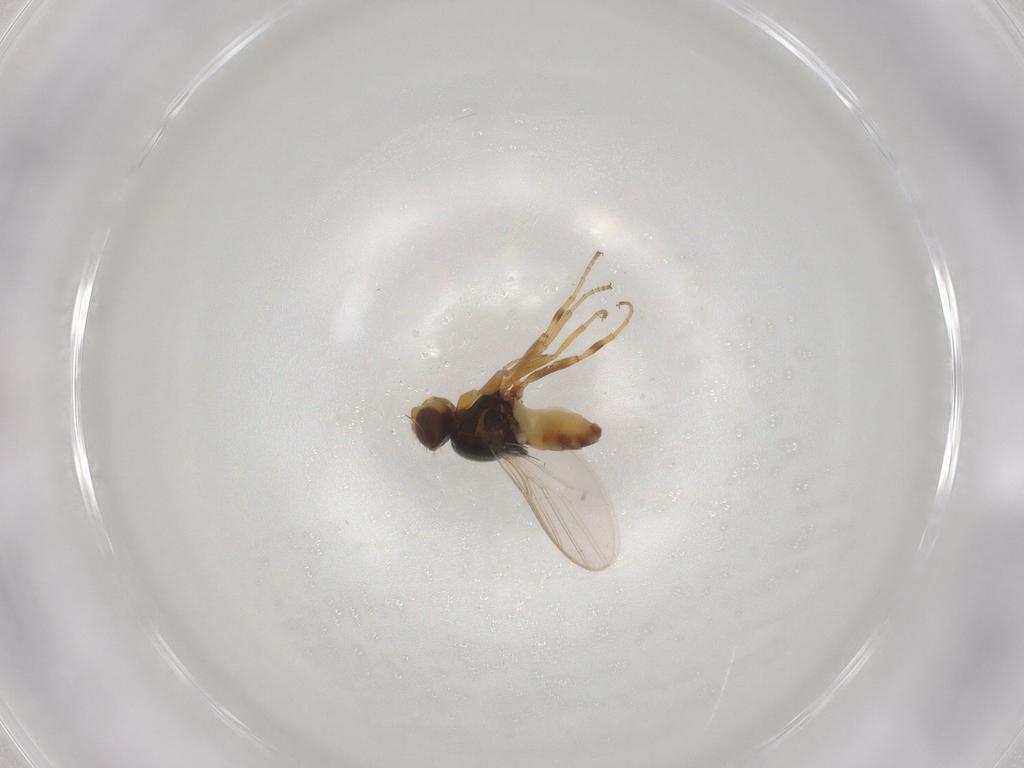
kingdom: Animalia
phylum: Arthropoda
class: Insecta
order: Diptera
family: Chloropidae
